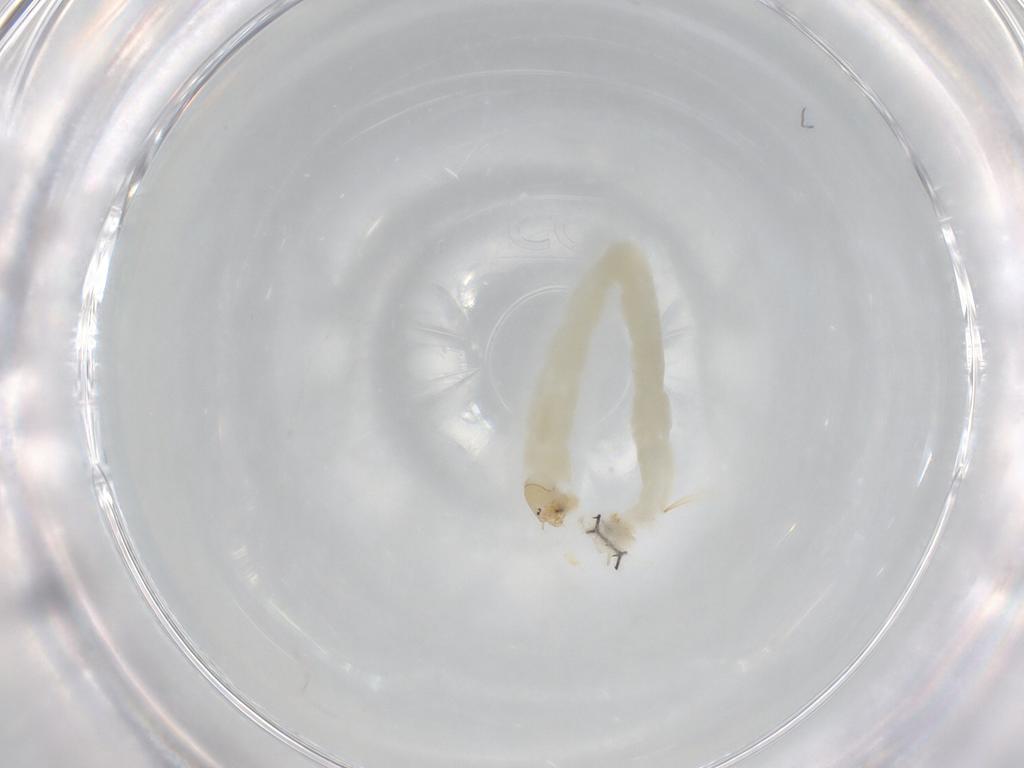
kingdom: Animalia
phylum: Arthropoda
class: Insecta
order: Diptera
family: Chironomidae
